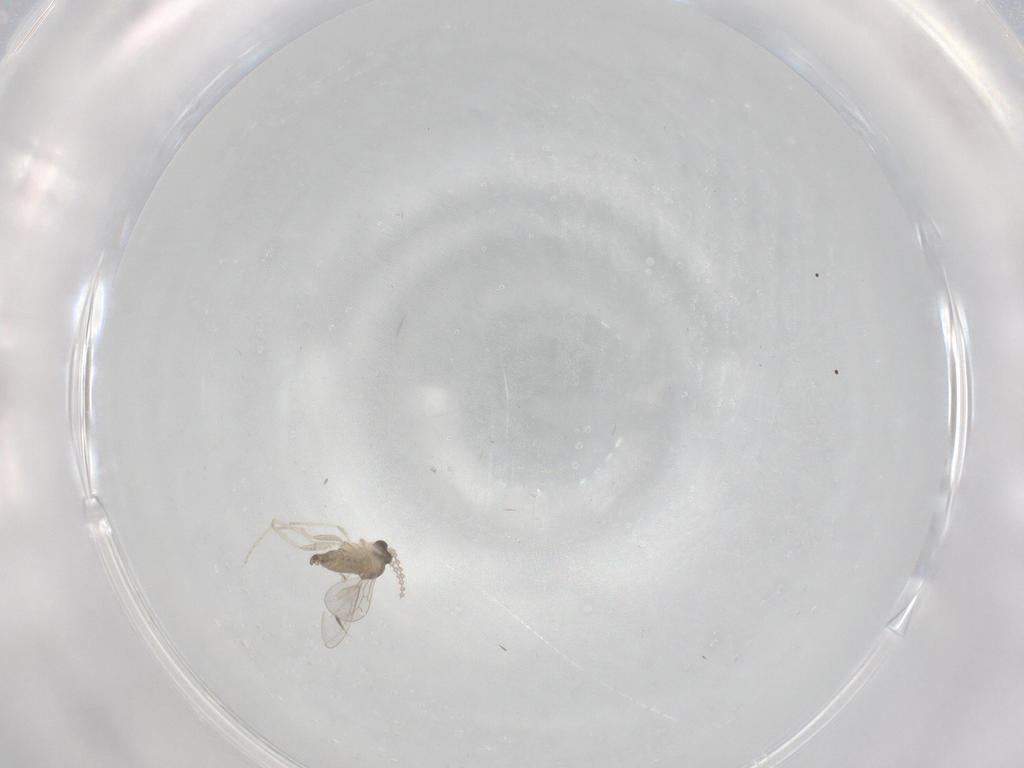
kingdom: Animalia
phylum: Arthropoda
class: Insecta
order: Diptera
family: Cecidomyiidae
